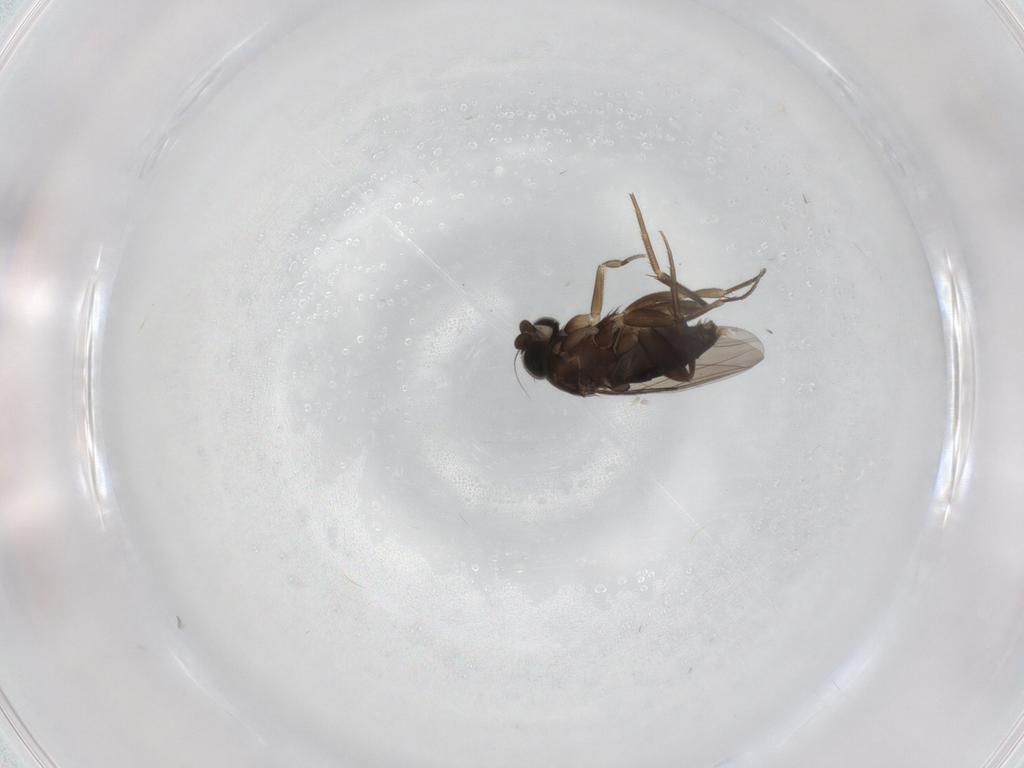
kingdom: Animalia
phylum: Arthropoda
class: Insecta
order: Diptera
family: Phoridae
